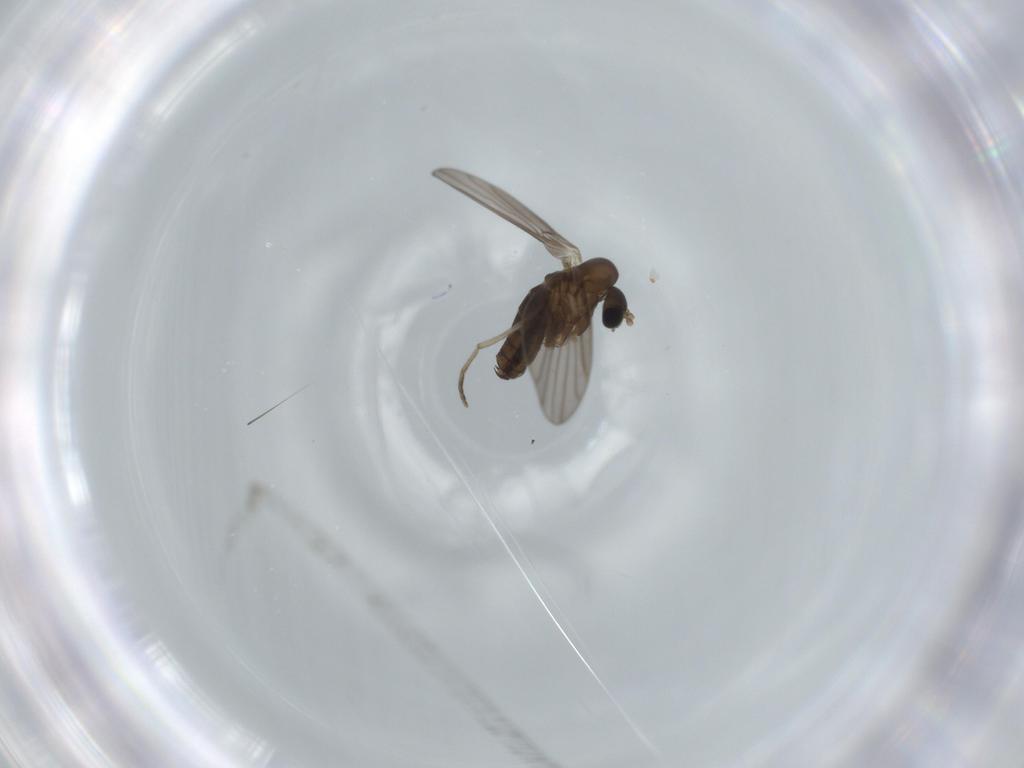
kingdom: Animalia
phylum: Arthropoda
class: Insecta
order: Diptera
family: Psychodidae
